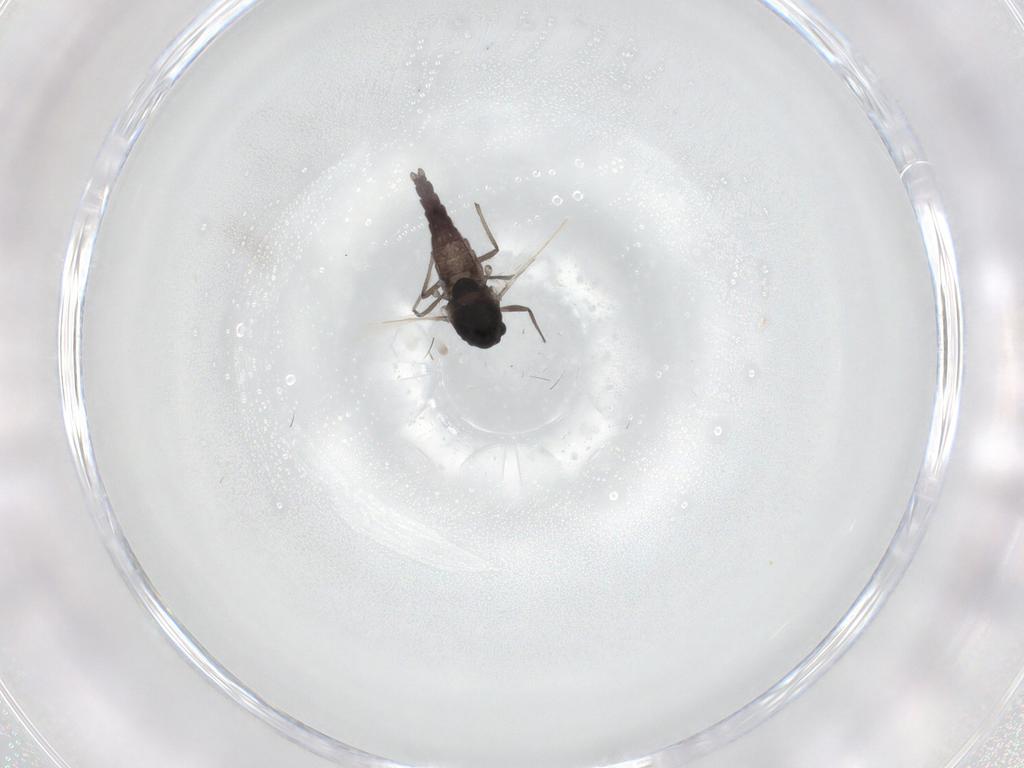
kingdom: Animalia
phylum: Arthropoda
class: Insecta
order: Diptera
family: Chironomidae
